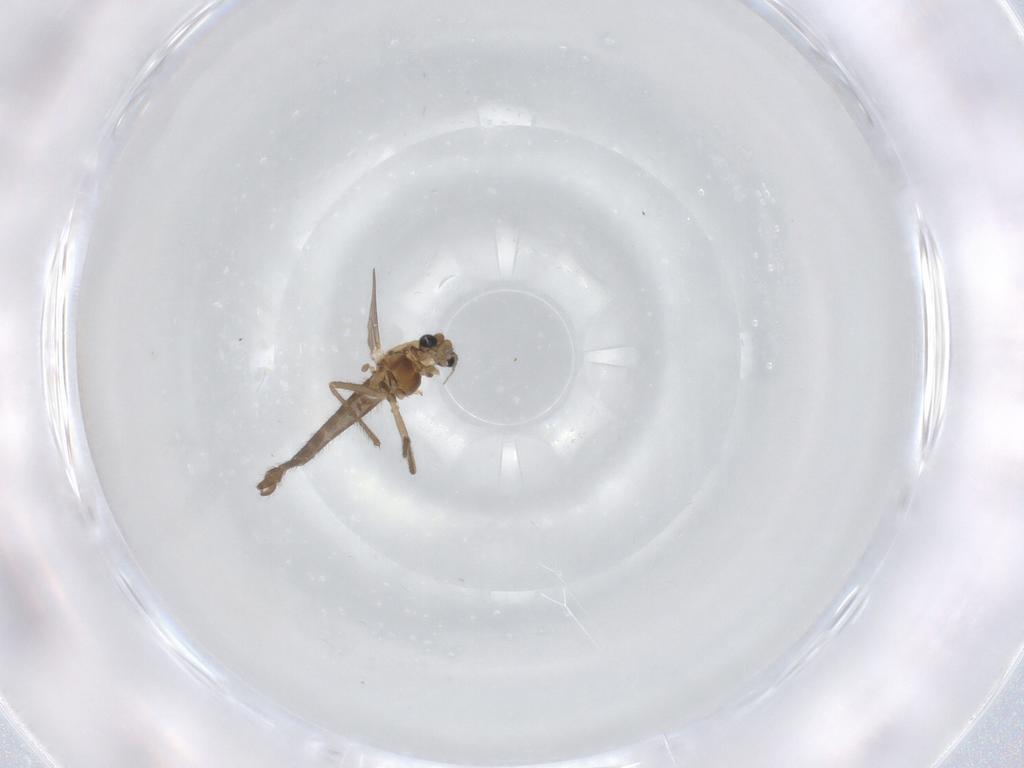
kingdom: Animalia
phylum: Arthropoda
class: Insecta
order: Diptera
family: Chironomidae
